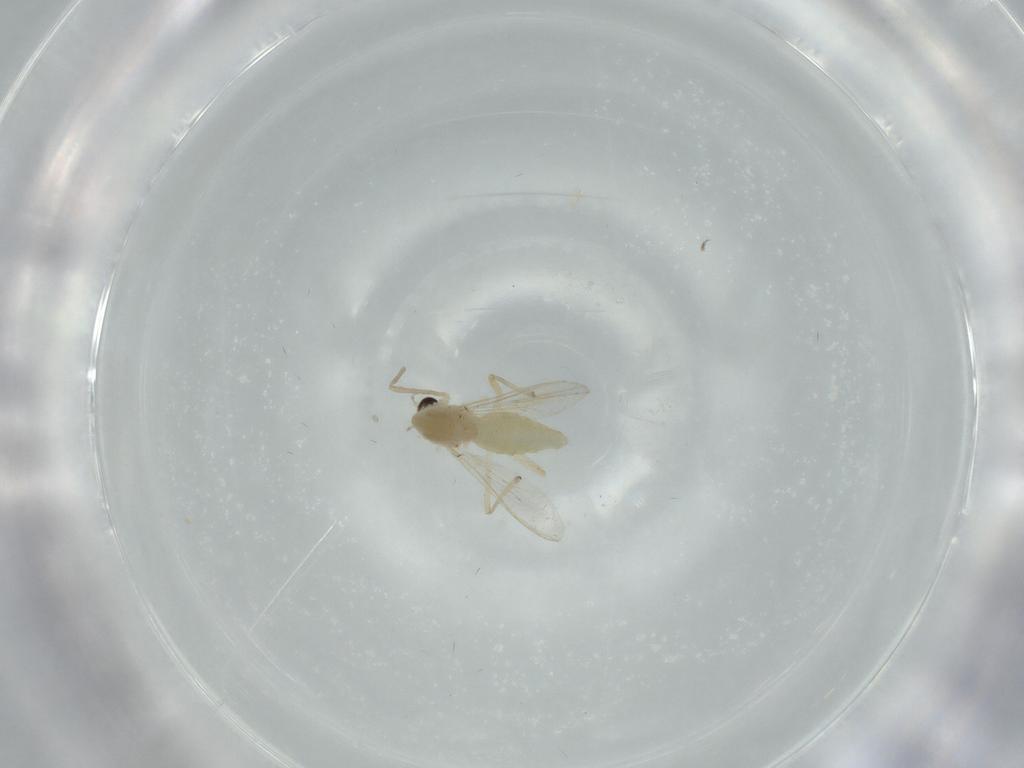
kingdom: Animalia
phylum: Arthropoda
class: Insecta
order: Diptera
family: Chironomidae
